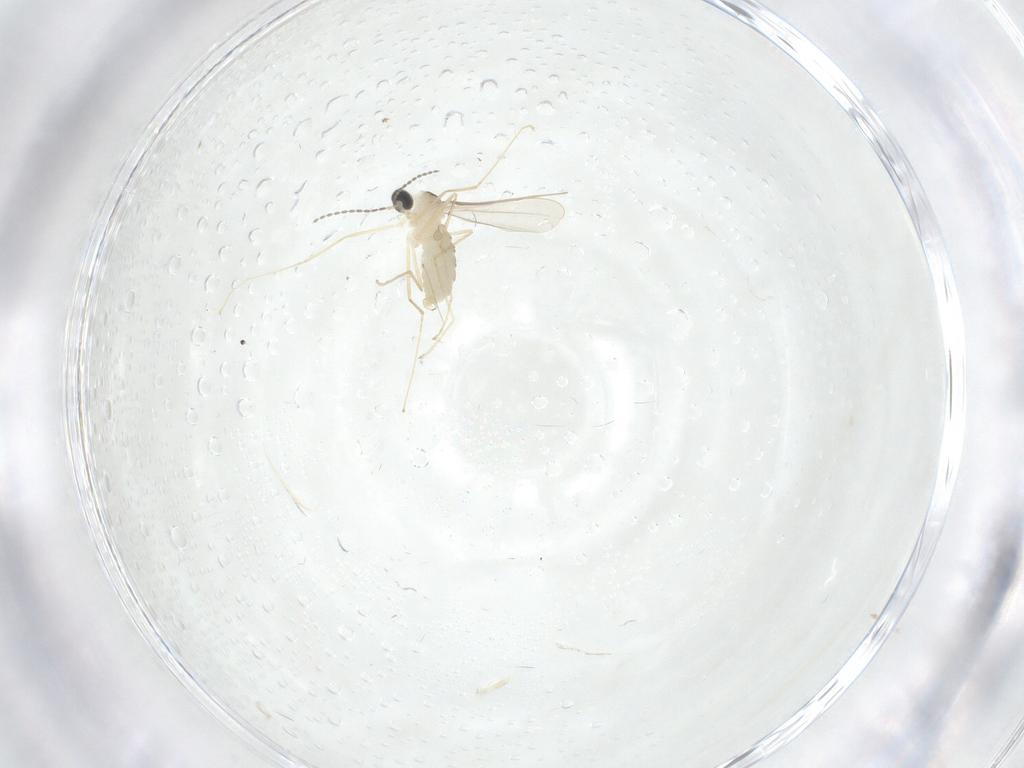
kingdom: Animalia
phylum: Arthropoda
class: Insecta
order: Diptera
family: Cecidomyiidae
